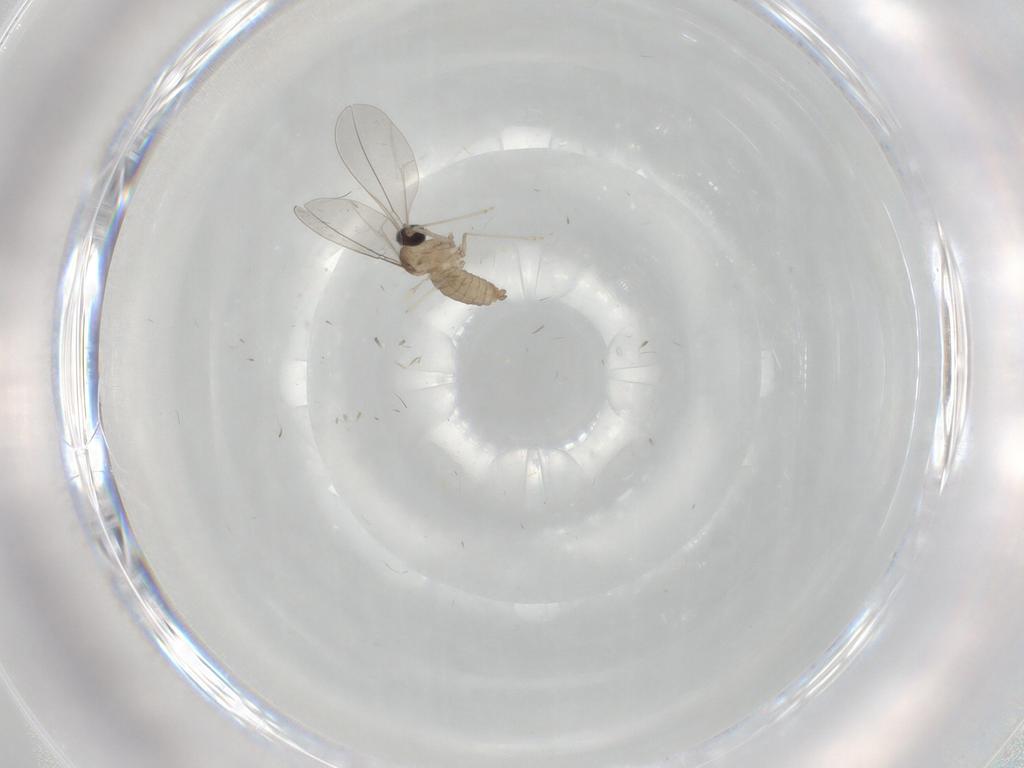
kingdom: Animalia
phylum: Arthropoda
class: Insecta
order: Diptera
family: Cecidomyiidae
